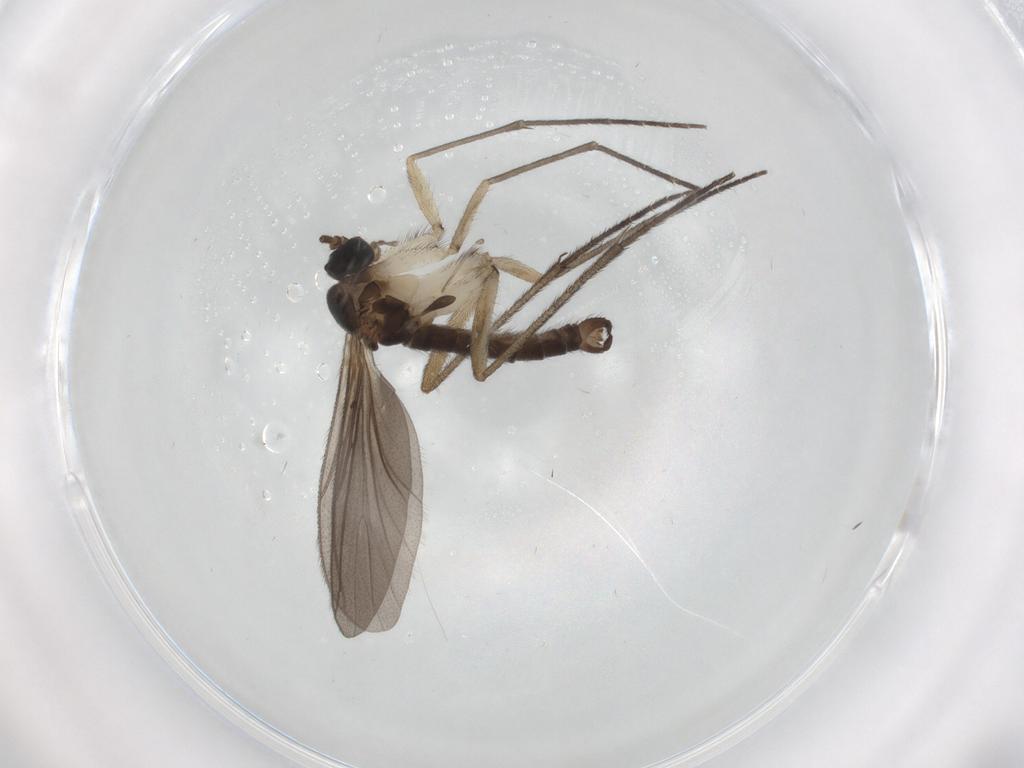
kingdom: Animalia
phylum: Arthropoda
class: Insecta
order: Diptera
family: Sciaridae
